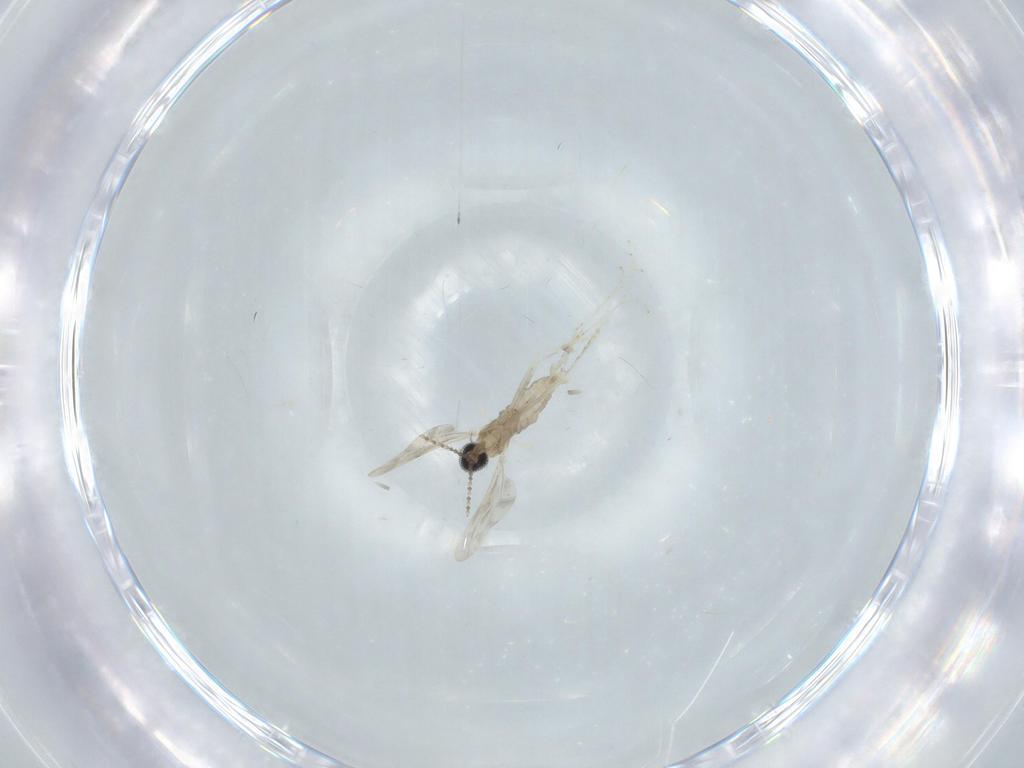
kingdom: Animalia
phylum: Arthropoda
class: Insecta
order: Diptera
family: Cecidomyiidae
